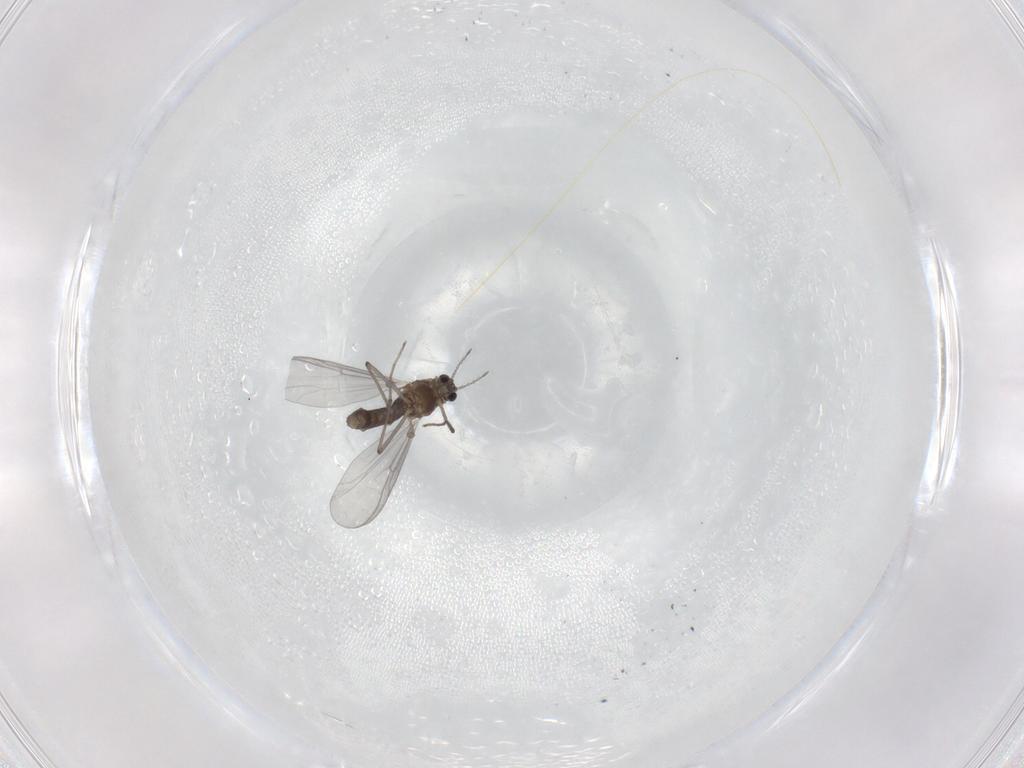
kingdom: Animalia
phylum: Arthropoda
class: Insecta
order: Diptera
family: Chironomidae
